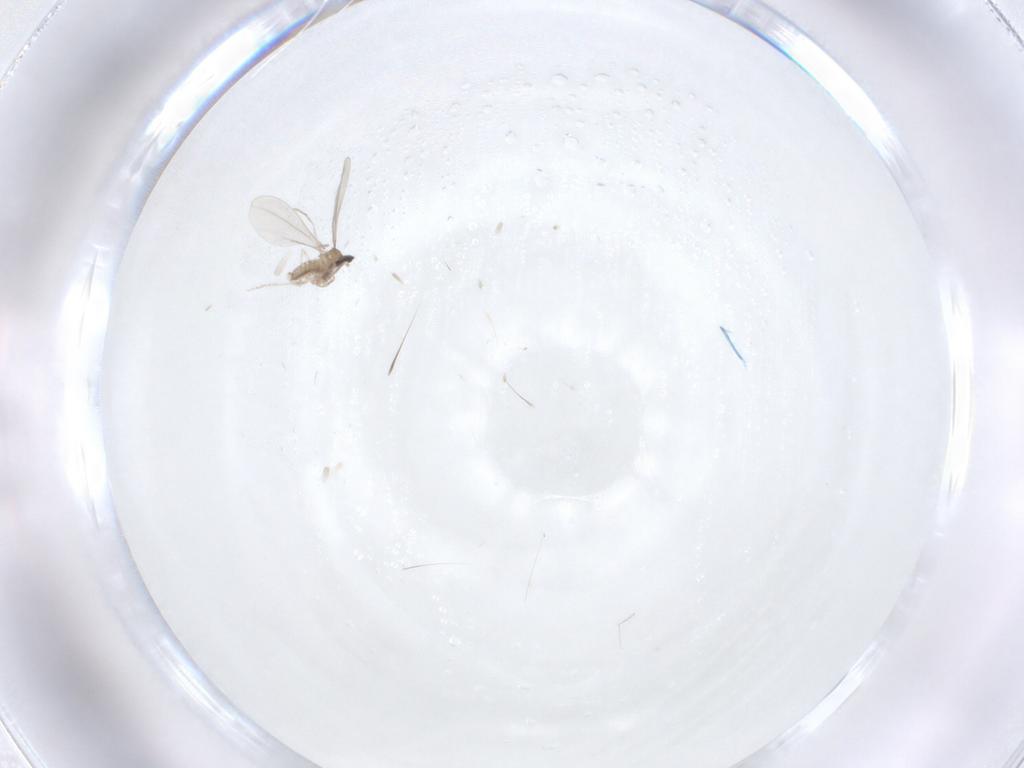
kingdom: Animalia
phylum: Arthropoda
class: Insecta
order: Diptera
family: Cecidomyiidae
